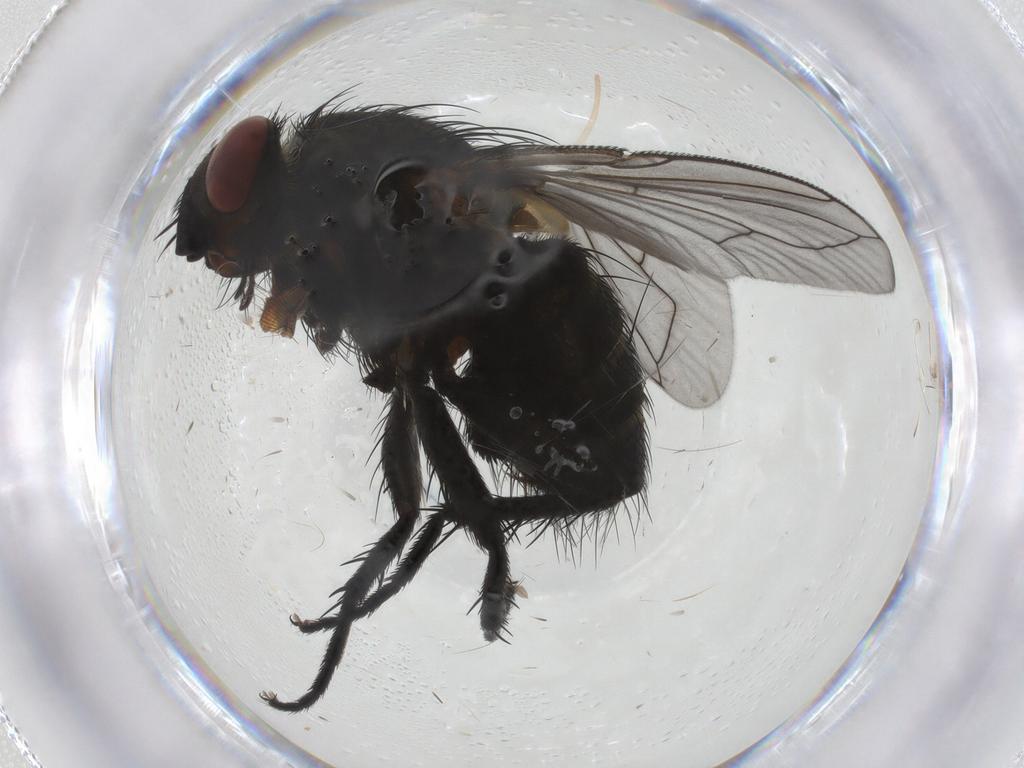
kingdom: Animalia
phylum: Arthropoda
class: Insecta
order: Diptera
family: Tachinidae
